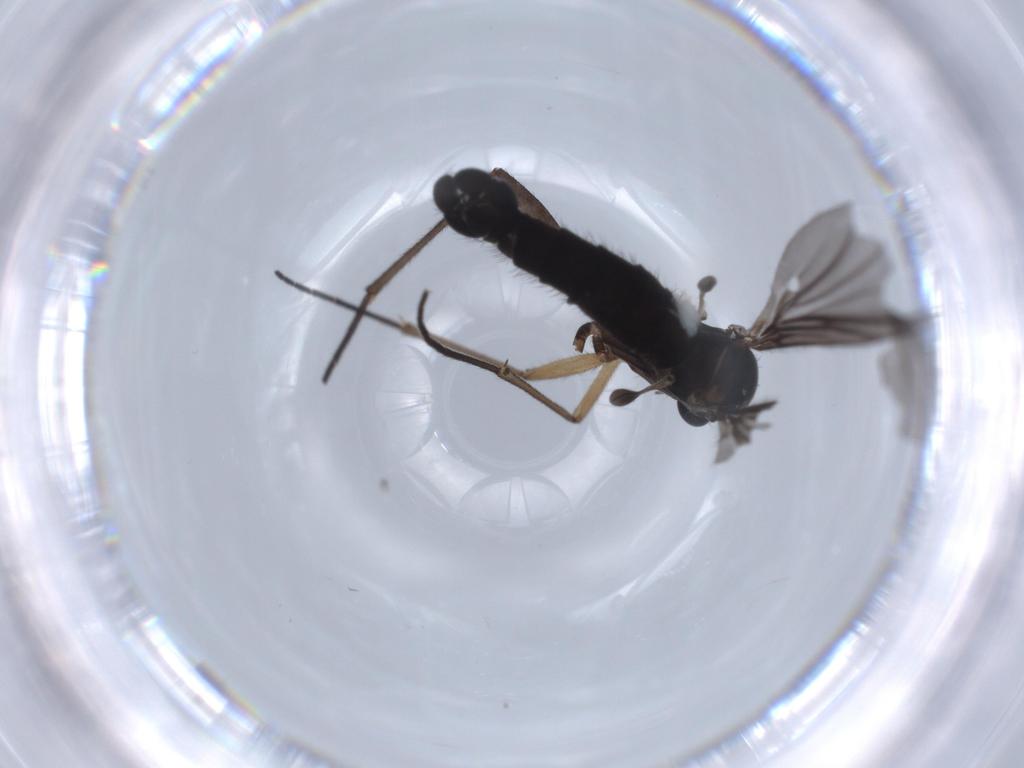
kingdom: Animalia
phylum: Arthropoda
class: Insecta
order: Diptera
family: Sciaridae
